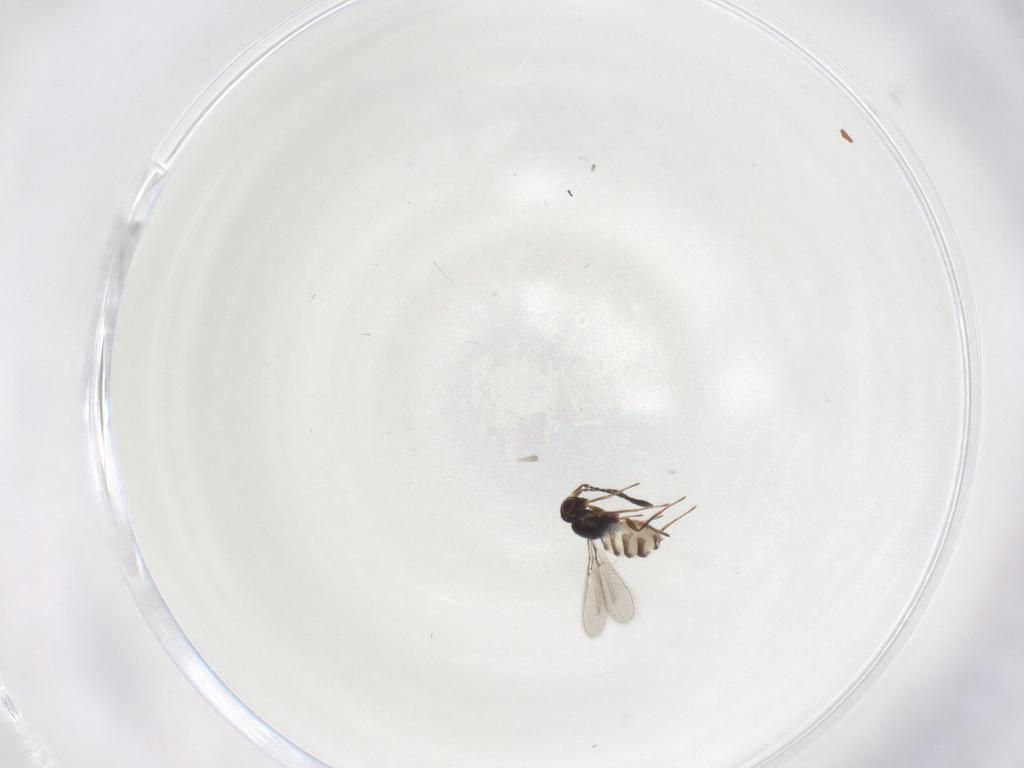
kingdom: Animalia
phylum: Arthropoda
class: Insecta
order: Hymenoptera
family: Mymaridae
